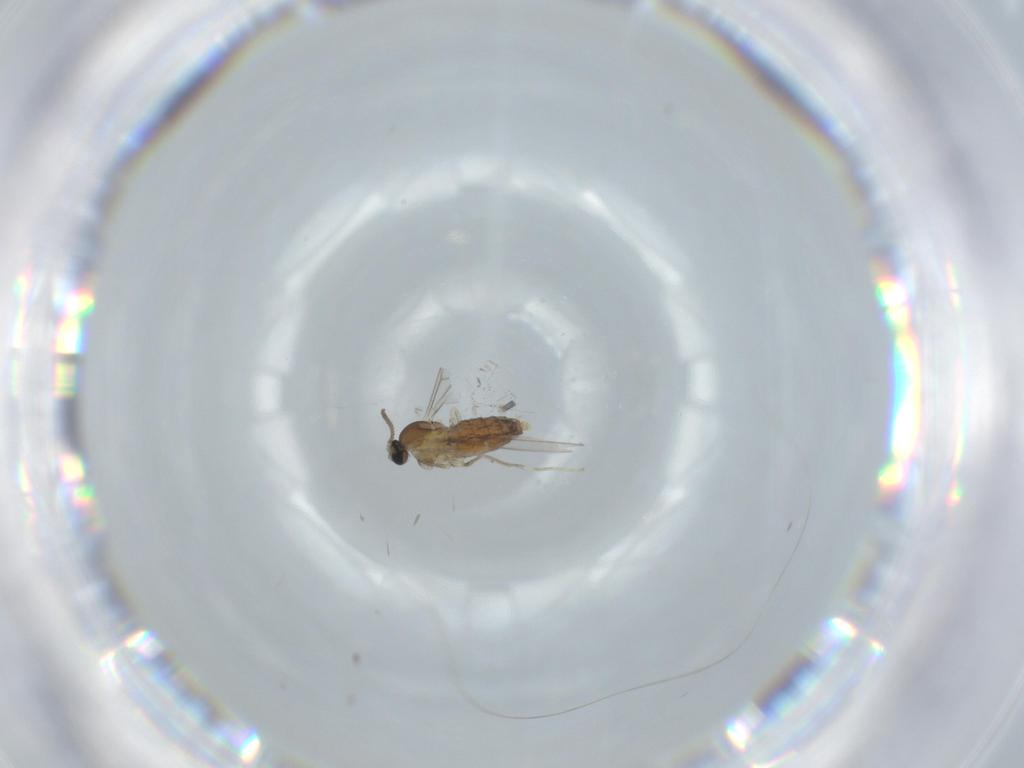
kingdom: Animalia
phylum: Arthropoda
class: Insecta
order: Diptera
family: Cecidomyiidae
